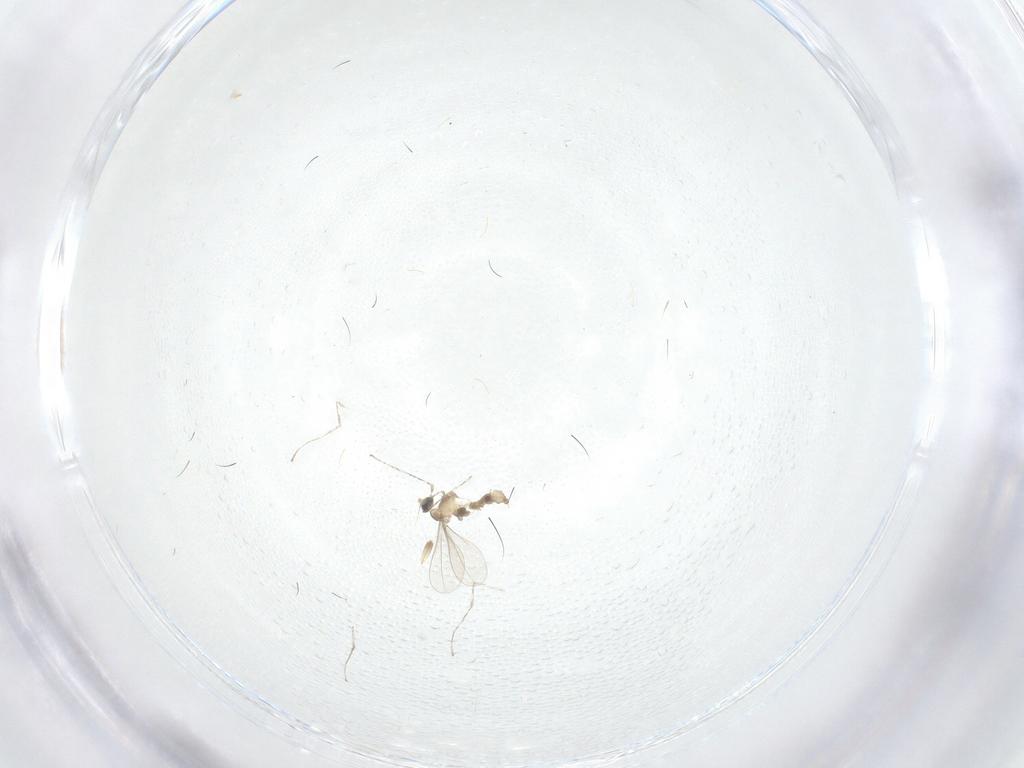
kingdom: Animalia
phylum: Arthropoda
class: Insecta
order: Diptera
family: Cecidomyiidae
